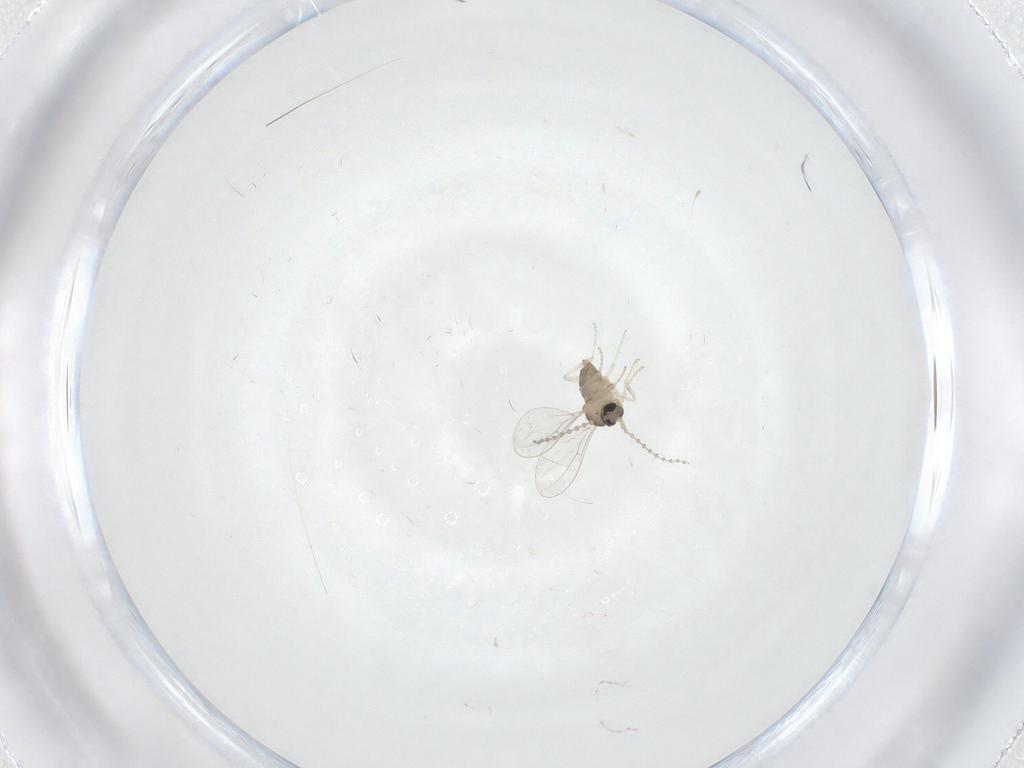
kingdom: Animalia
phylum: Arthropoda
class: Insecta
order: Diptera
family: Cecidomyiidae
